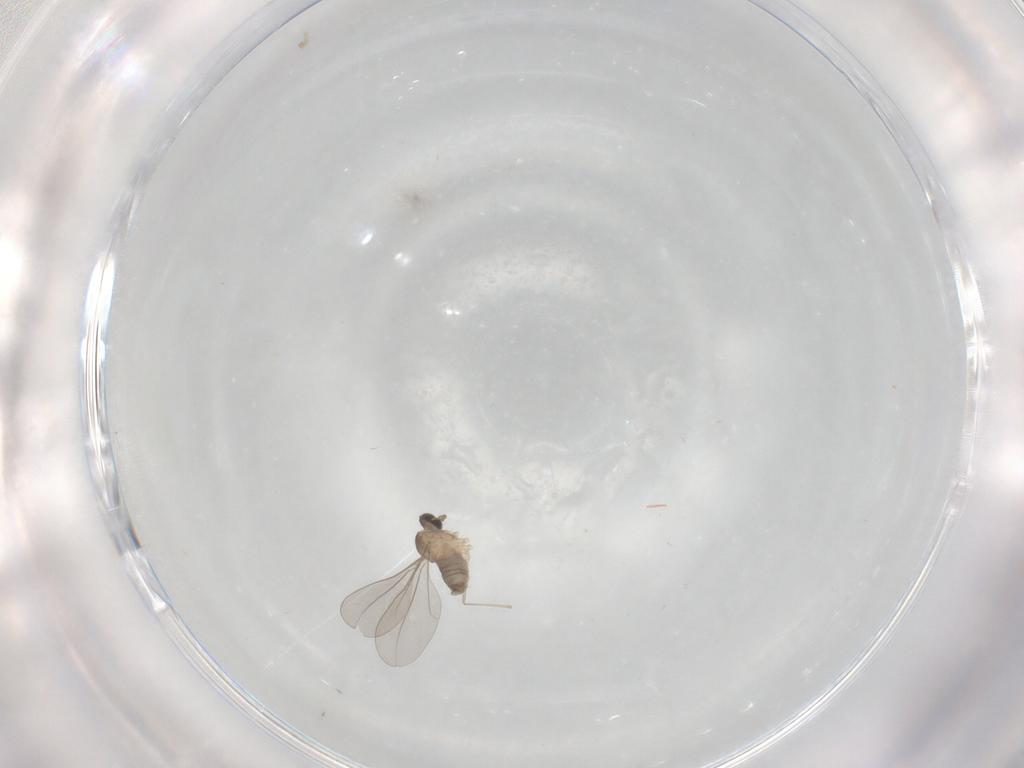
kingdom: Animalia
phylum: Arthropoda
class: Insecta
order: Diptera
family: Cecidomyiidae
